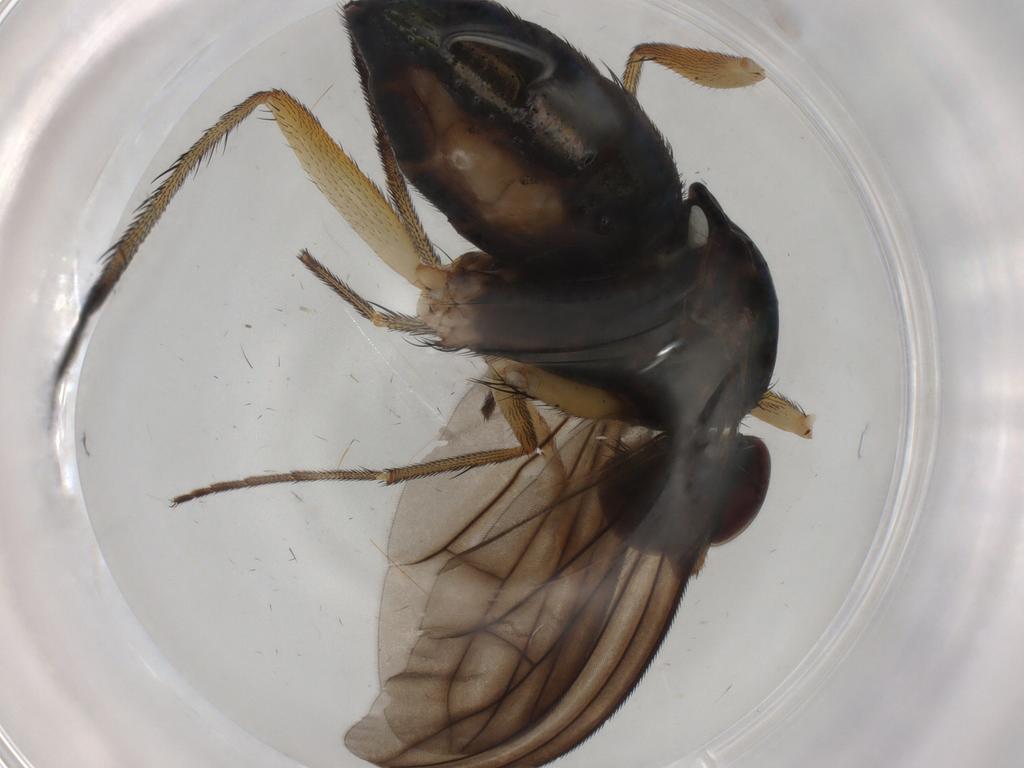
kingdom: Animalia
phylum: Arthropoda
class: Insecta
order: Diptera
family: Dolichopodidae
